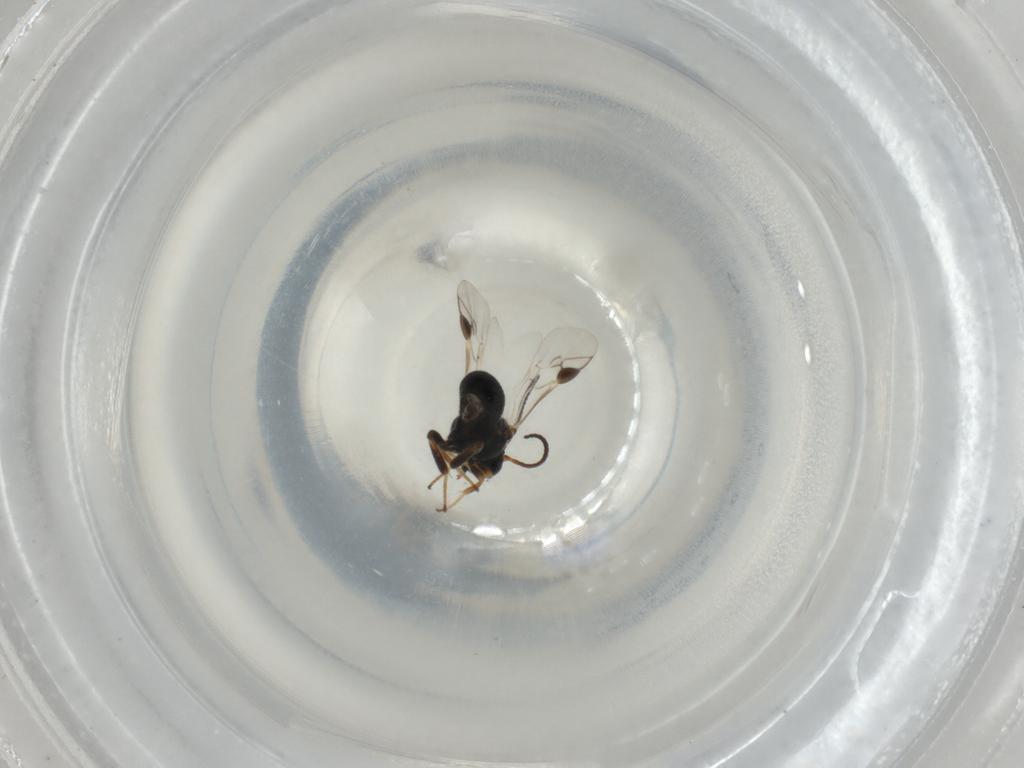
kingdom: Animalia
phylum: Arthropoda
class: Insecta
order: Hymenoptera
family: Braconidae
